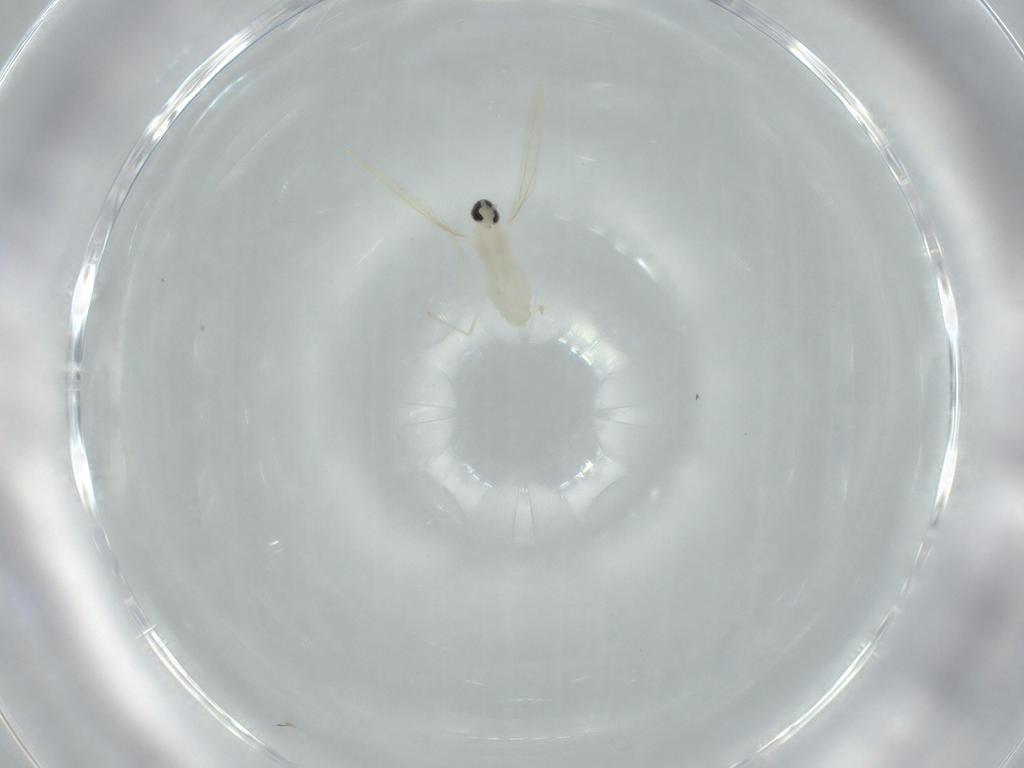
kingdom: Animalia
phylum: Arthropoda
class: Insecta
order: Diptera
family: Cecidomyiidae
